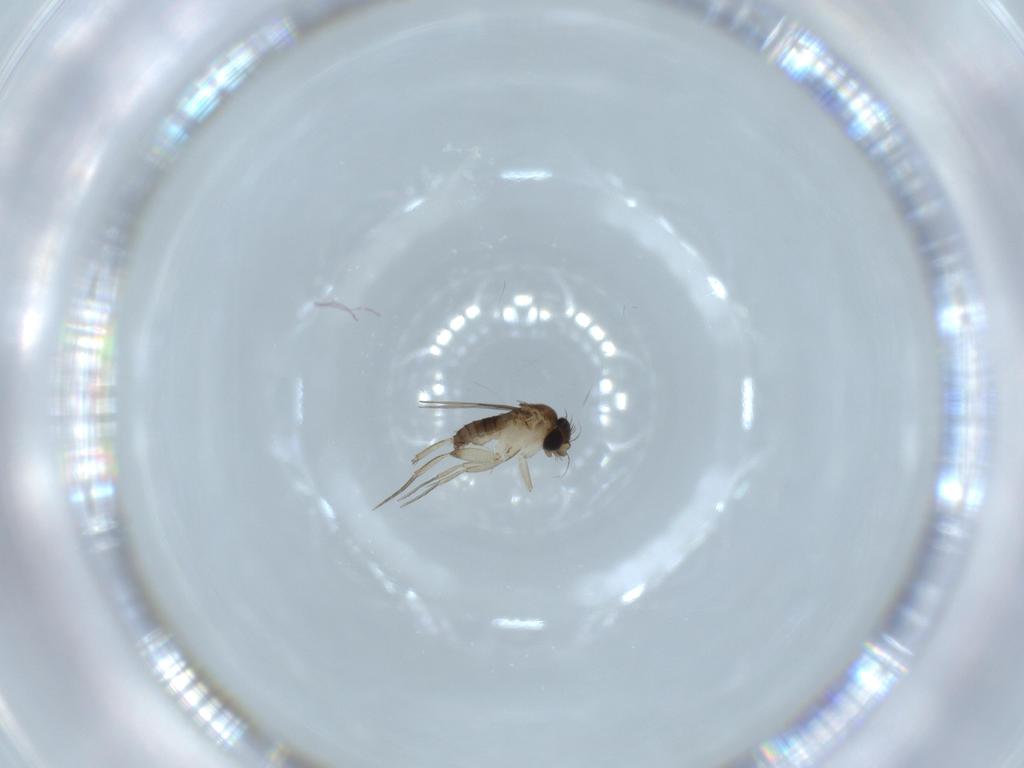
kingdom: Animalia
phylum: Arthropoda
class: Insecta
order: Diptera
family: Phoridae
